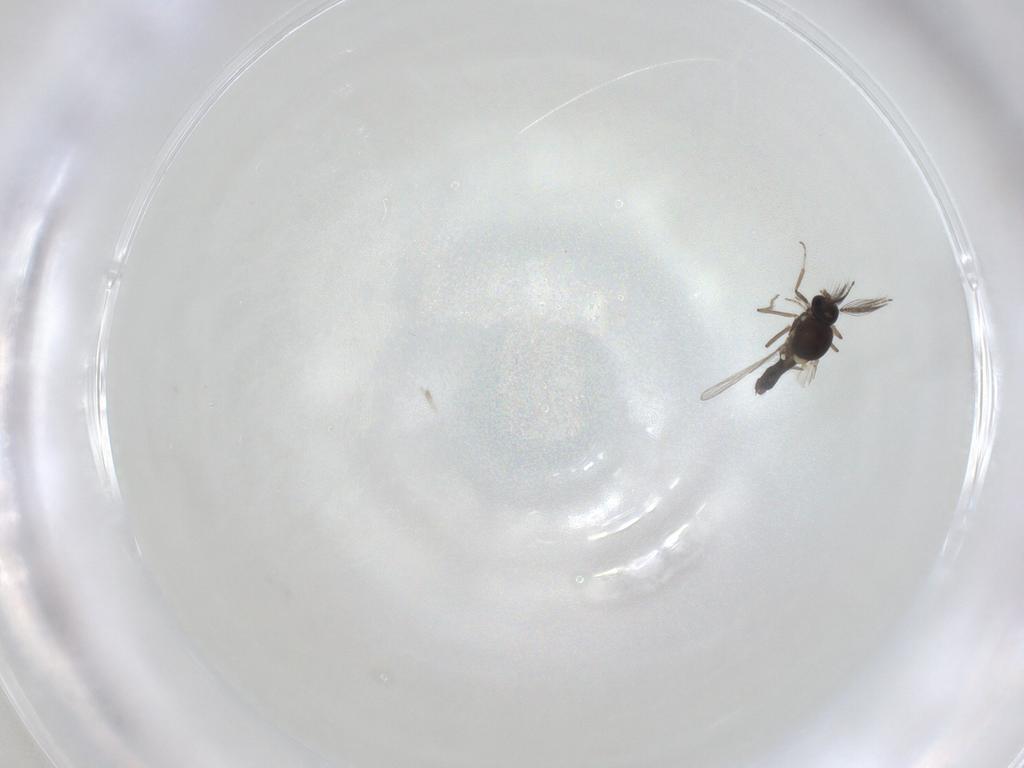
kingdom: Animalia
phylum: Arthropoda
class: Insecta
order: Diptera
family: Ceratopogonidae
